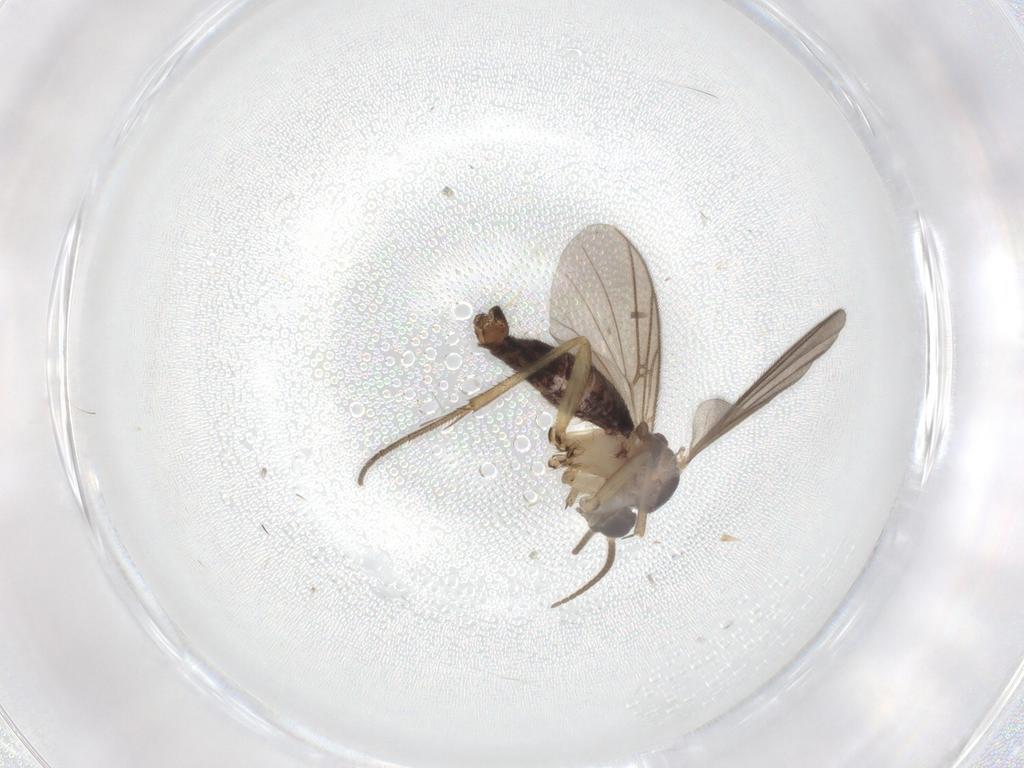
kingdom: Animalia
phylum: Arthropoda
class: Insecta
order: Diptera
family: Mycetophilidae
